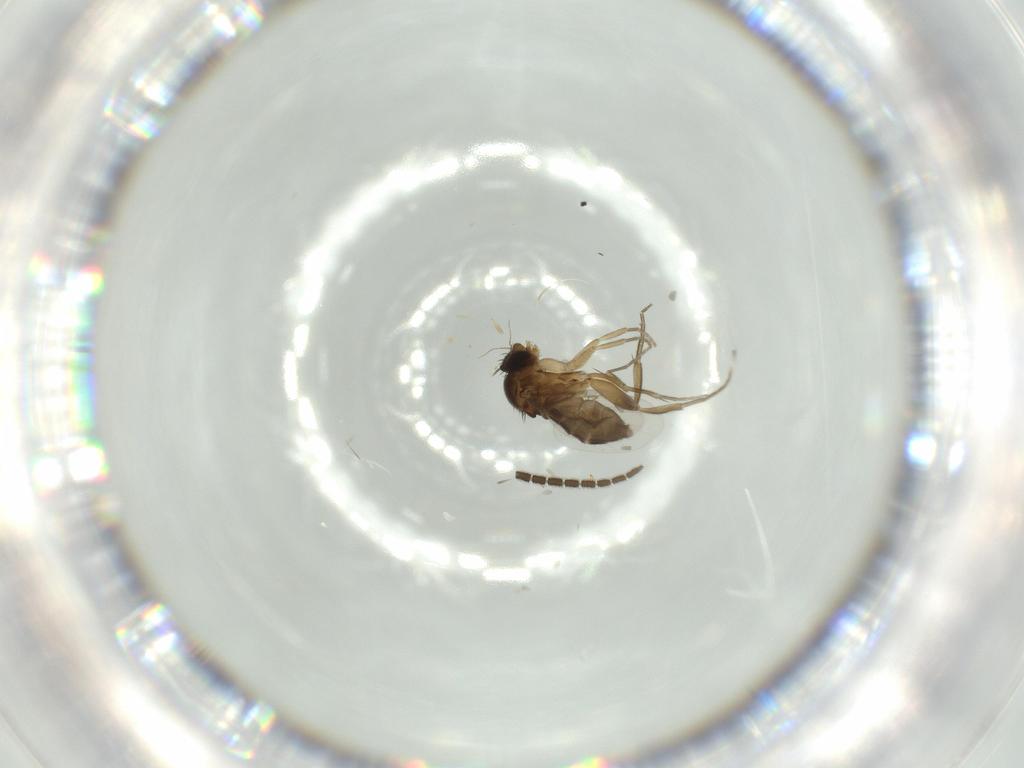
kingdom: Animalia
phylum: Arthropoda
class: Insecta
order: Diptera
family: Phoridae
